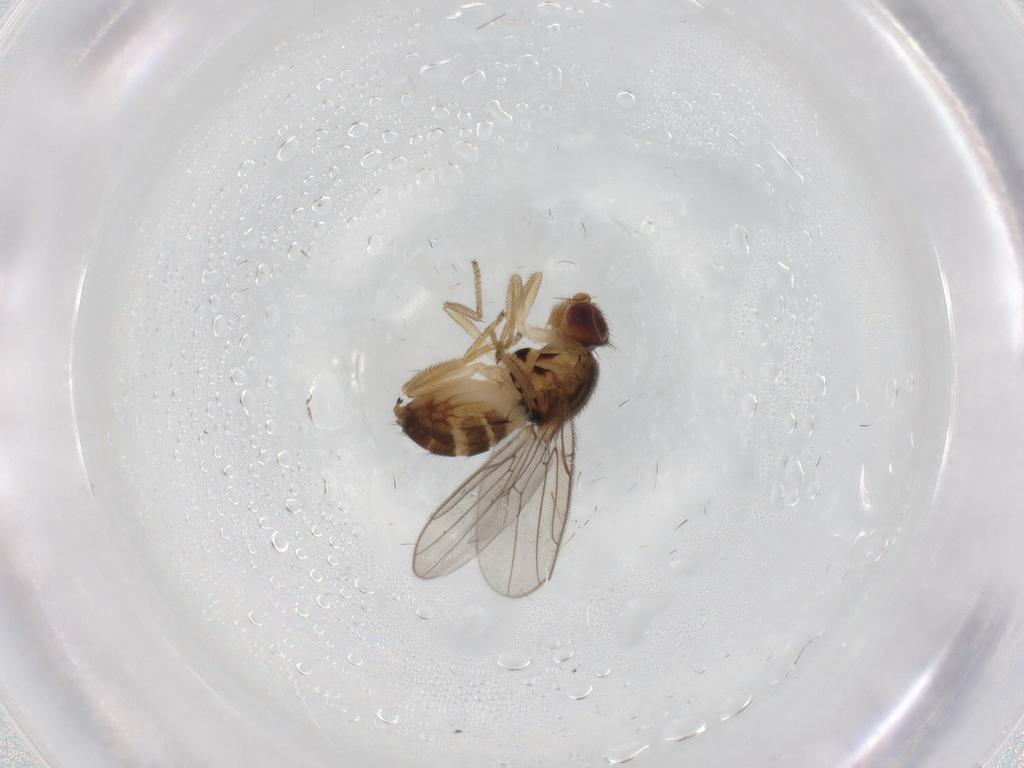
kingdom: Animalia
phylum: Arthropoda
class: Insecta
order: Diptera
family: Chloropidae
